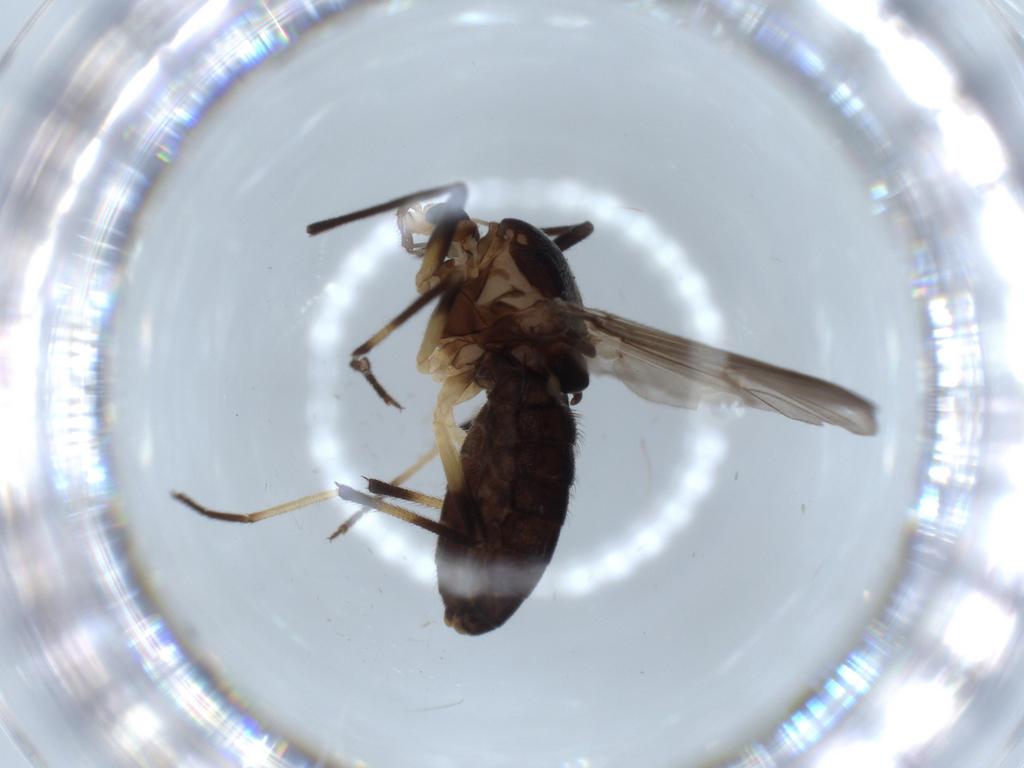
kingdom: Animalia
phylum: Arthropoda
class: Insecta
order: Diptera
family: Chironomidae
